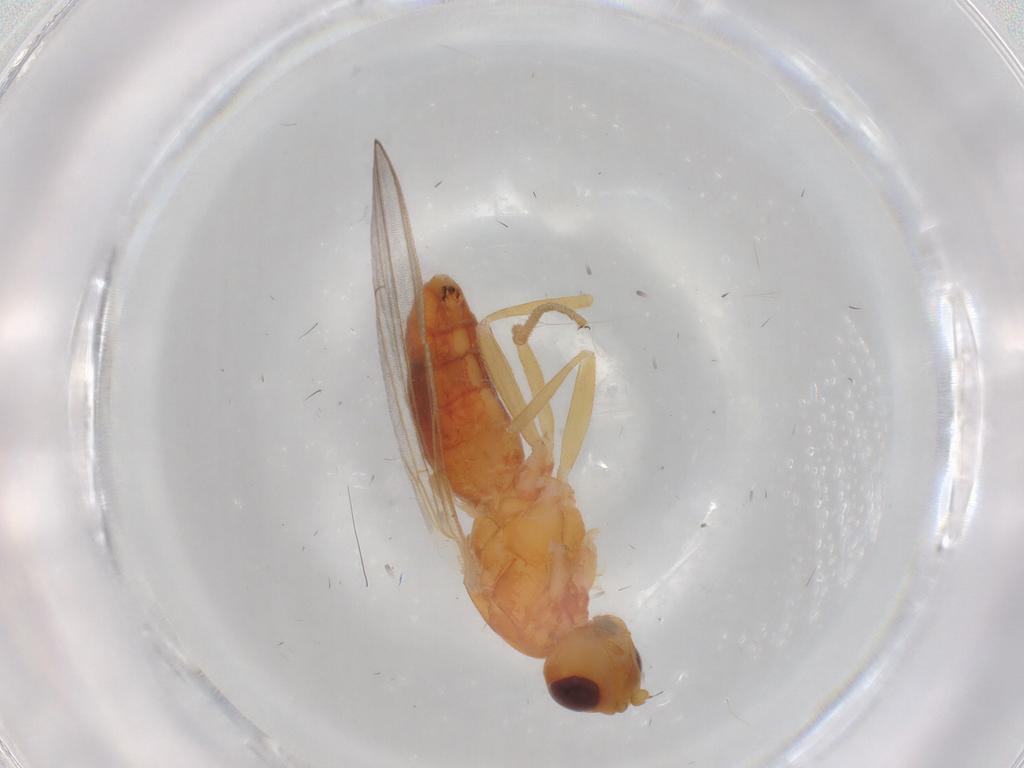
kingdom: Animalia
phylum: Arthropoda
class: Insecta
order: Diptera
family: Psilidae
